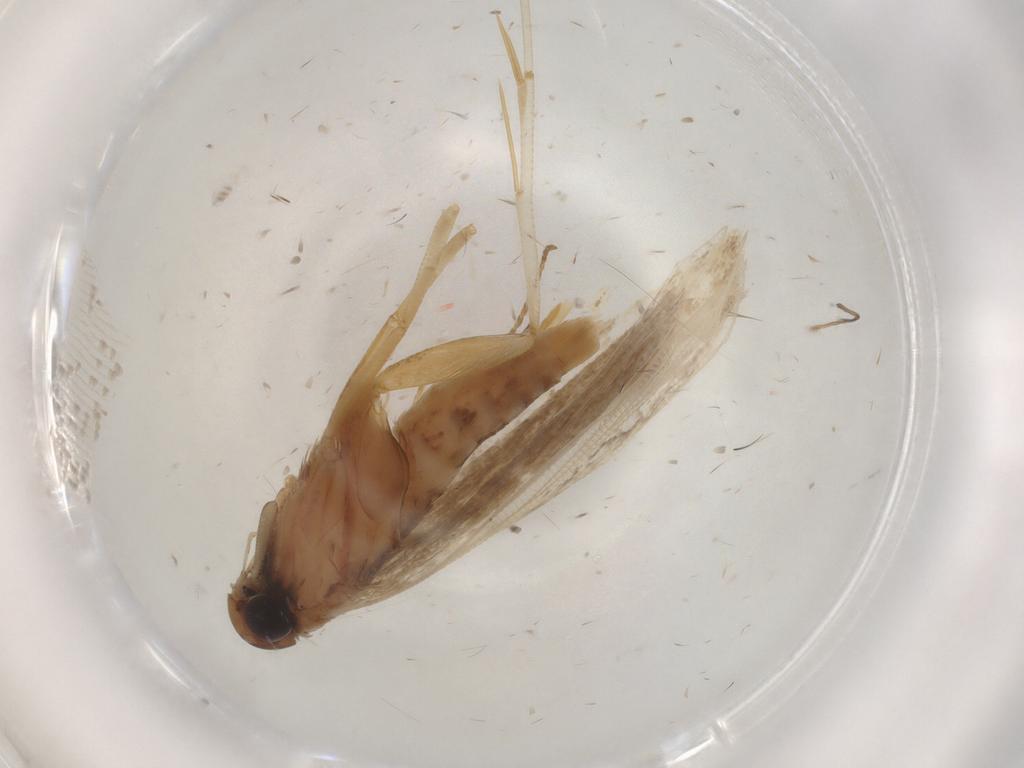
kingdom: Animalia
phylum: Arthropoda
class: Insecta
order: Lepidoptera
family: Gelechiidae
